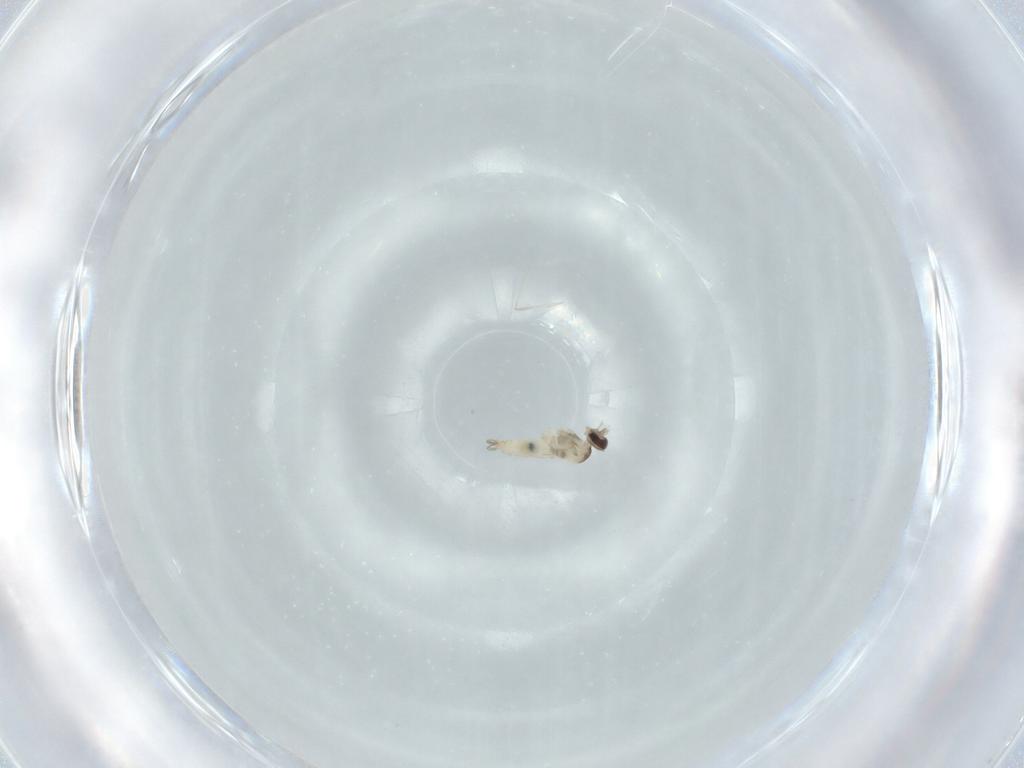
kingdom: Animalia
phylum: Arthropoda
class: Insecta
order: Diptera
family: Cecidomyiidae
